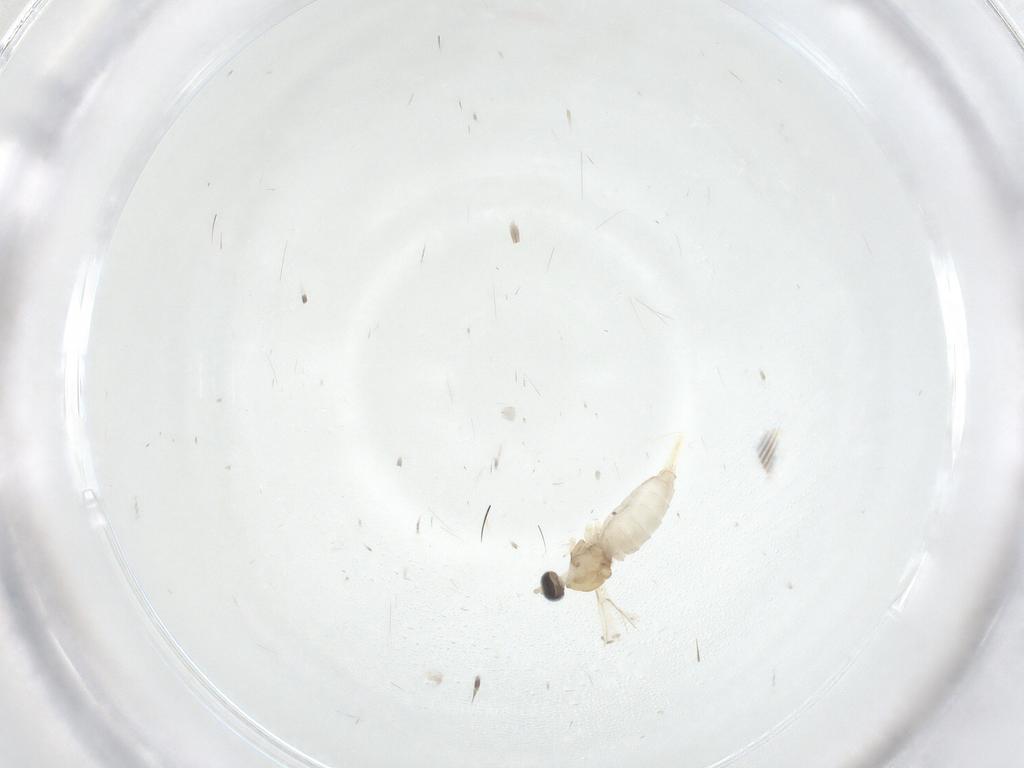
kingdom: Animalia
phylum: Arthropoda
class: Insecta
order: Diptera
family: Cecidomyiidae
